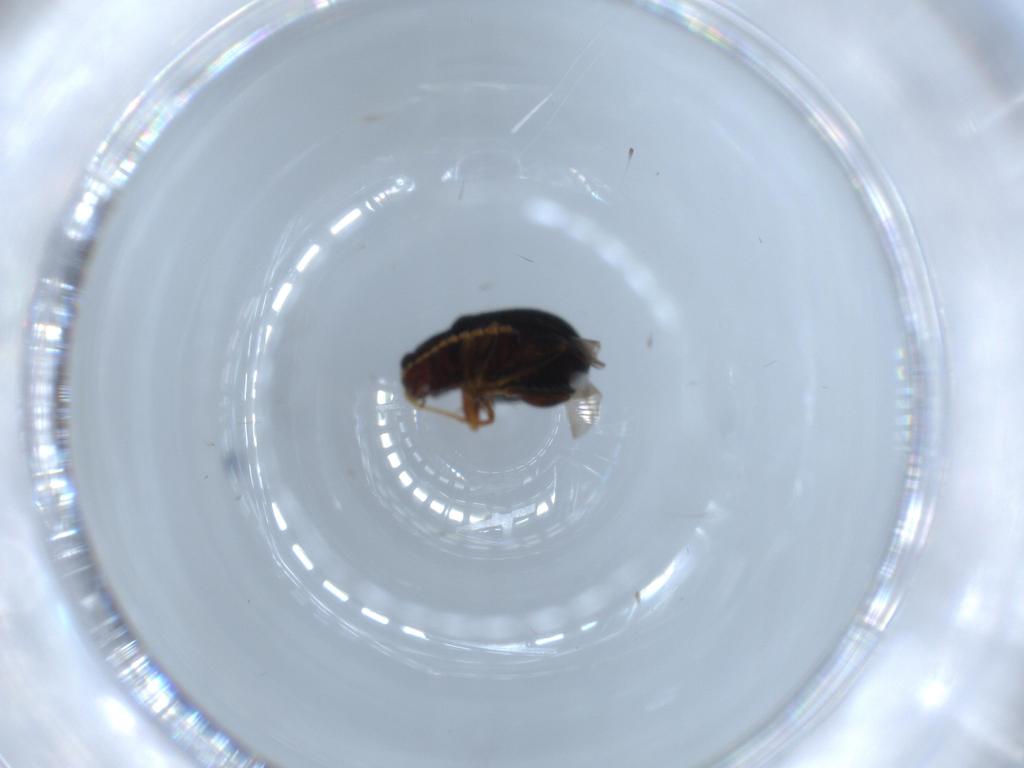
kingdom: Animalia
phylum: Arthropoda
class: Insecta
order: Coleoptera
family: Chrysomelidae
